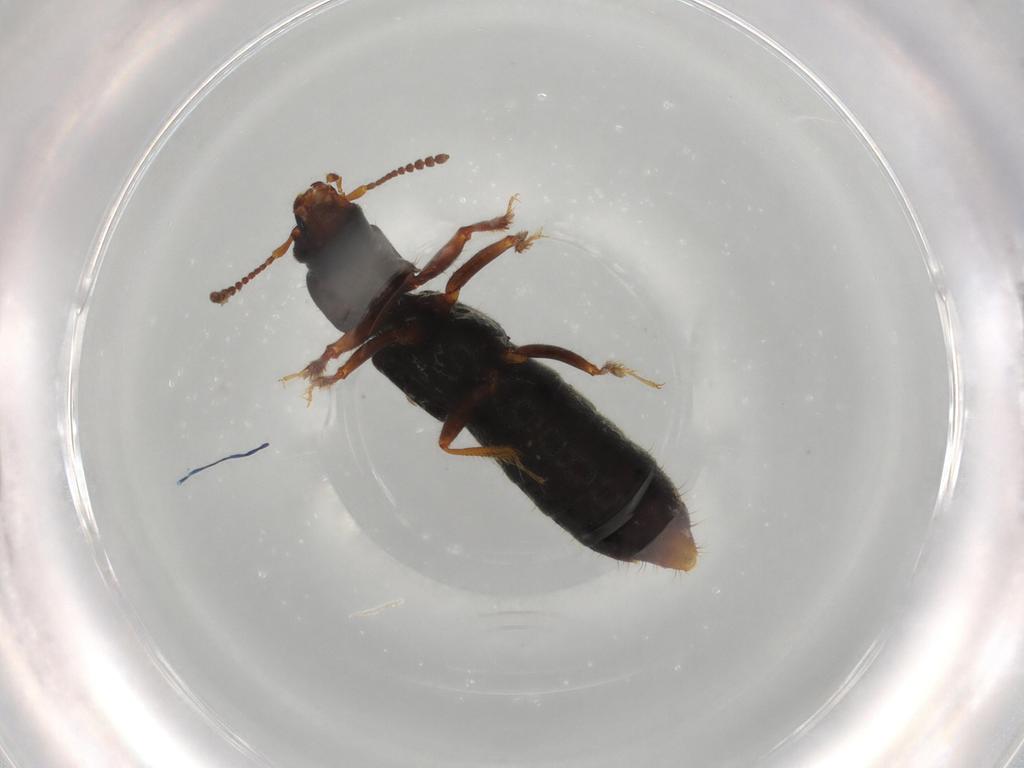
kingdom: Animalia
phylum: Arthropoda
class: Insecta
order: Coleoptera
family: Staphylinidae
